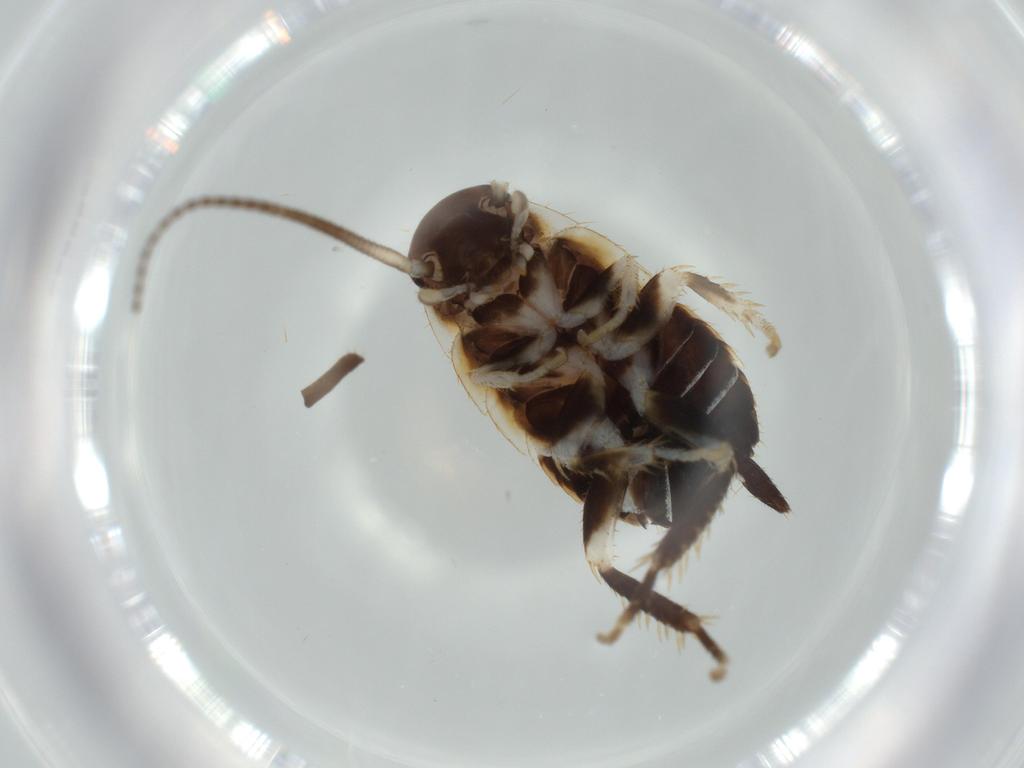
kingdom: Animalia
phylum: Arthropoda
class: Insecta
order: Blattodea
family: Ectobiidae
